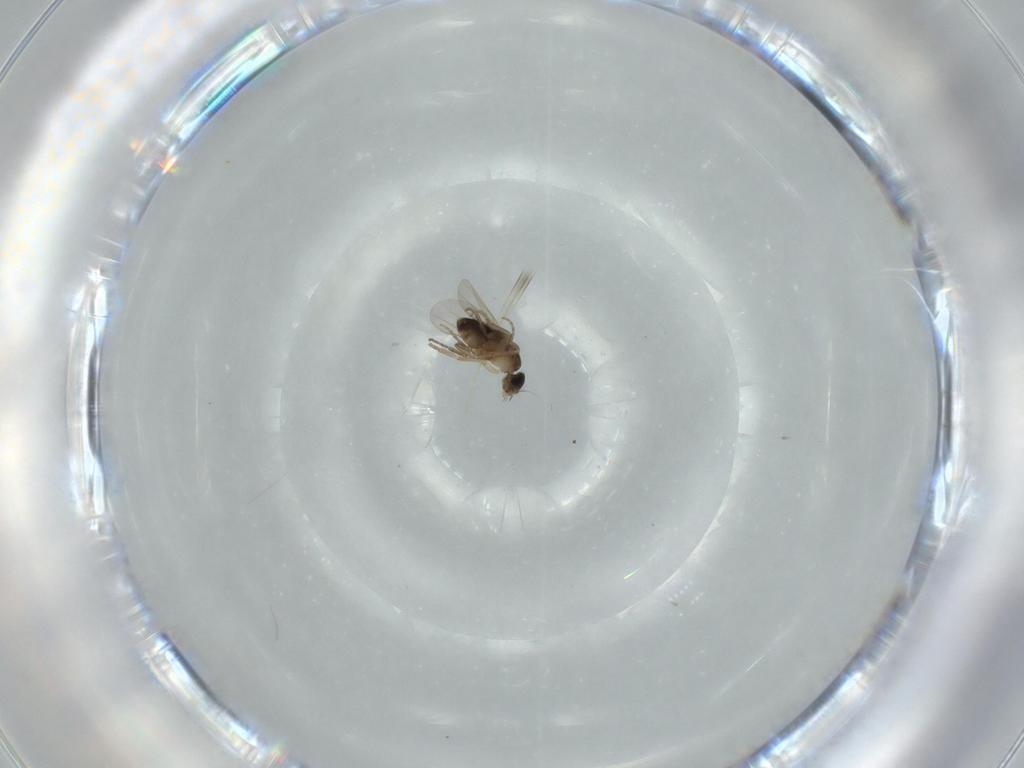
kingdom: Animalia
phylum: Arthropoda
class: Insecta
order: Diptera
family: Phoridae
